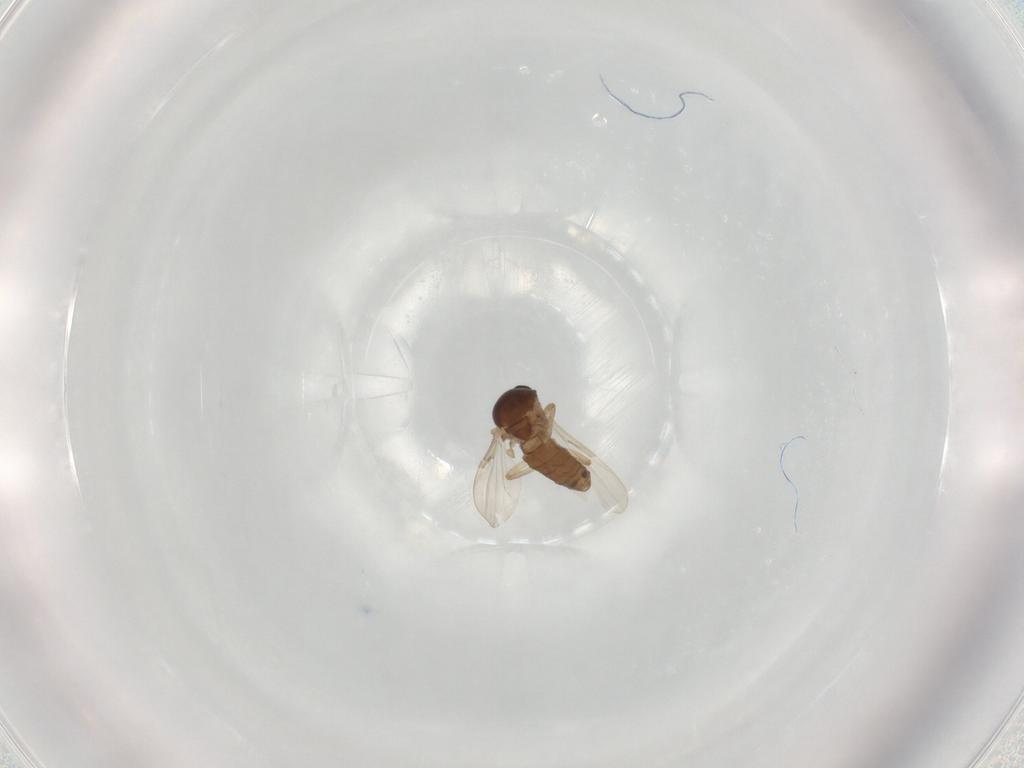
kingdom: Animalia
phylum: Arthropoda
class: Insecta
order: Diptera
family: Ceratopogonidae
